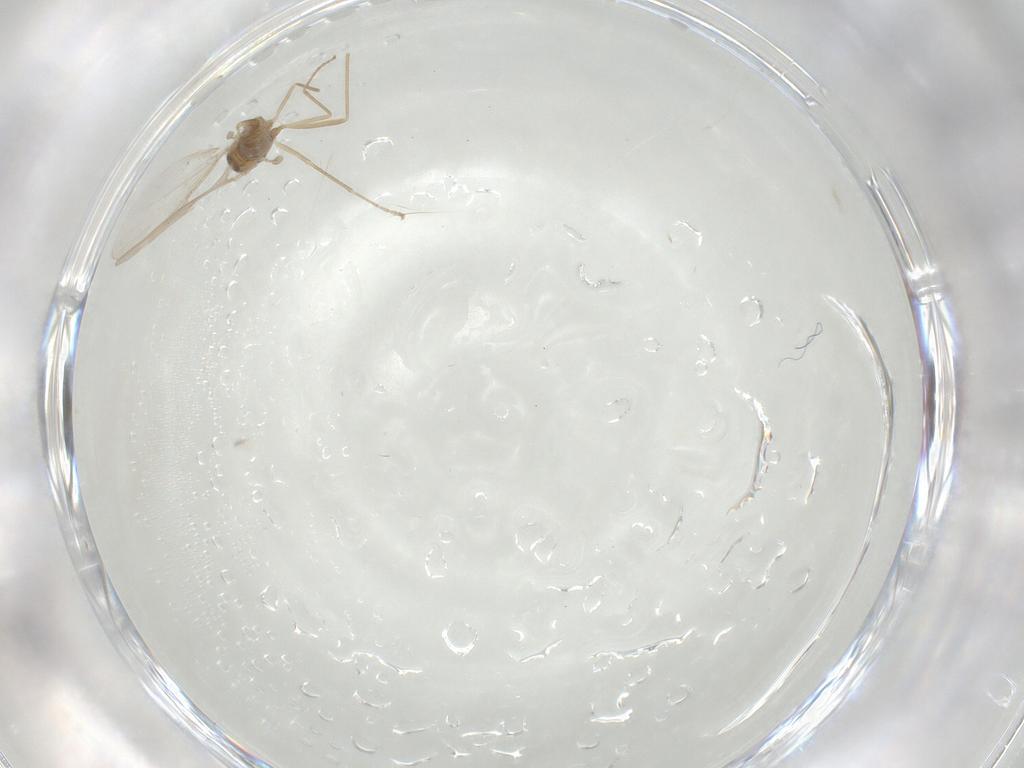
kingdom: Animalia
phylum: Arthropoda
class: Insecta
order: Diptera
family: Cecidomyiidae
